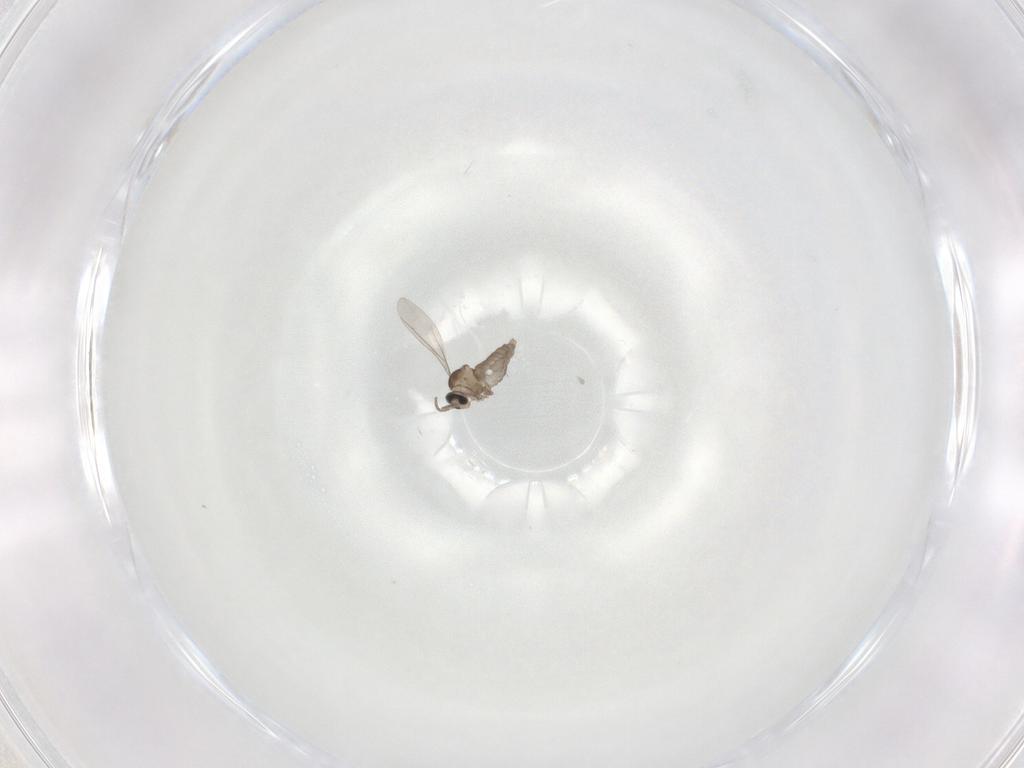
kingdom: Animalia
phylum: Arthropoda
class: Insecta
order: Diptera
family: Cecidomyiidae
